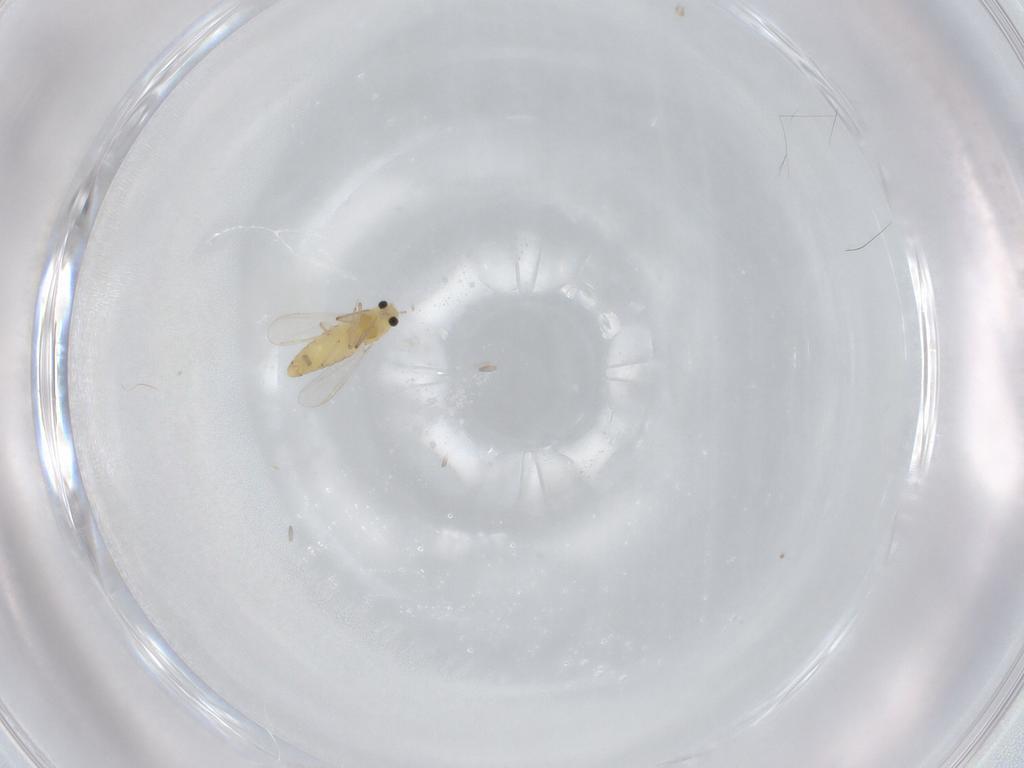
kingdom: Animalia
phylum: Arthropoda
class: Insecta
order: Diptera
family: Chironomidae
